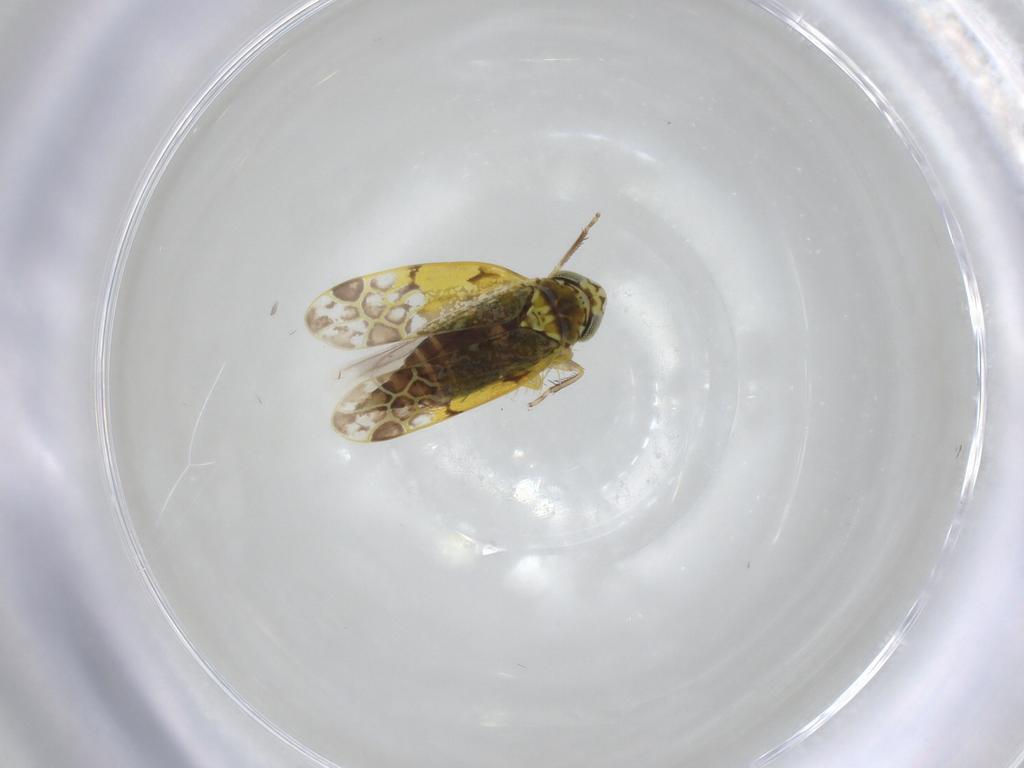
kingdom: Animalia
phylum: Arthropoda
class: Insecta
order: Hemiptera
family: Cicadellidae
